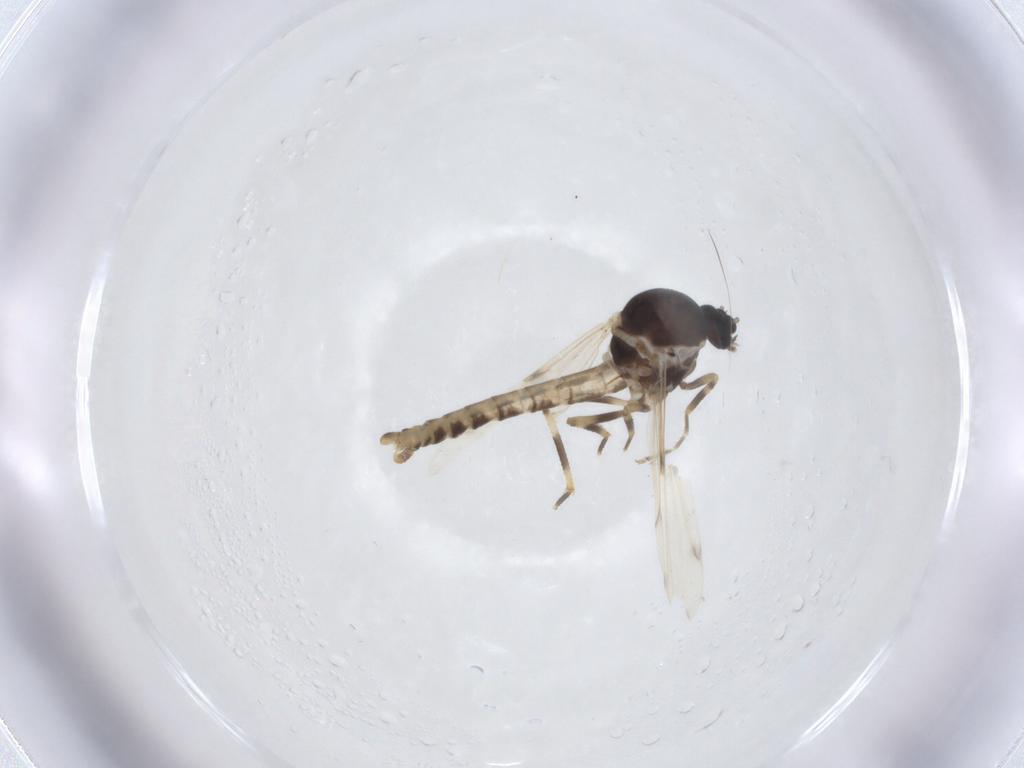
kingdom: Animalia
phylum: Arthropoda
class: Insecta
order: Diptera
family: Ceratopogonidae
